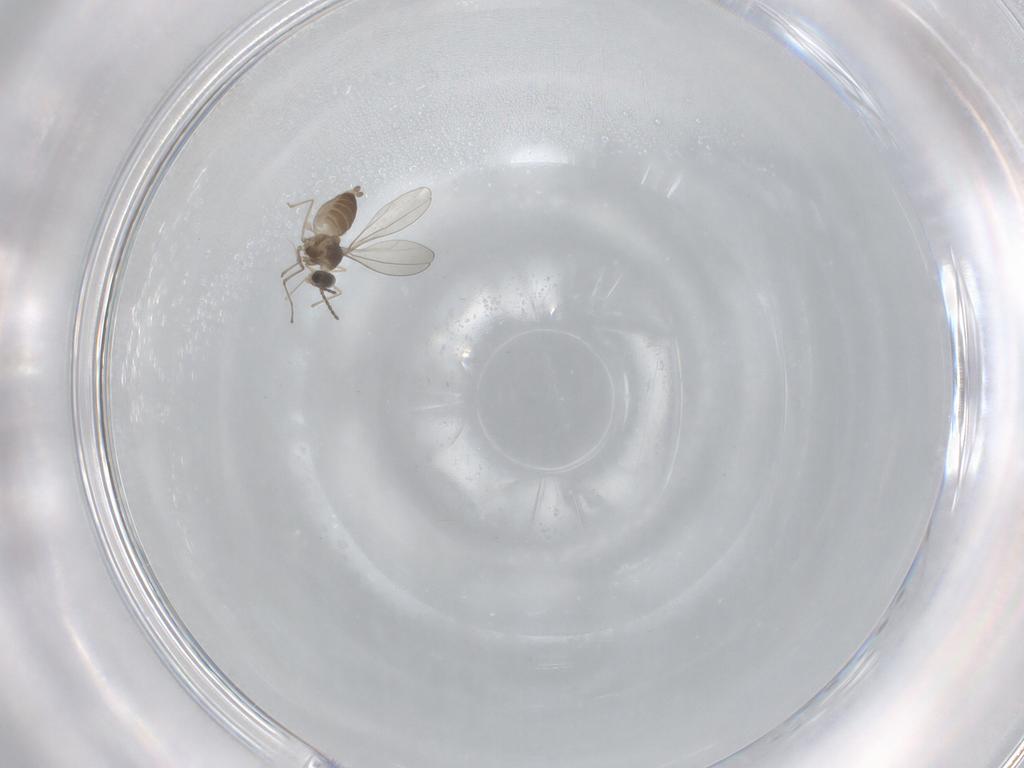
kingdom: Animalia
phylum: Arthropoda
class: Insecta
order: Diptera
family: Cecidomyiidae
